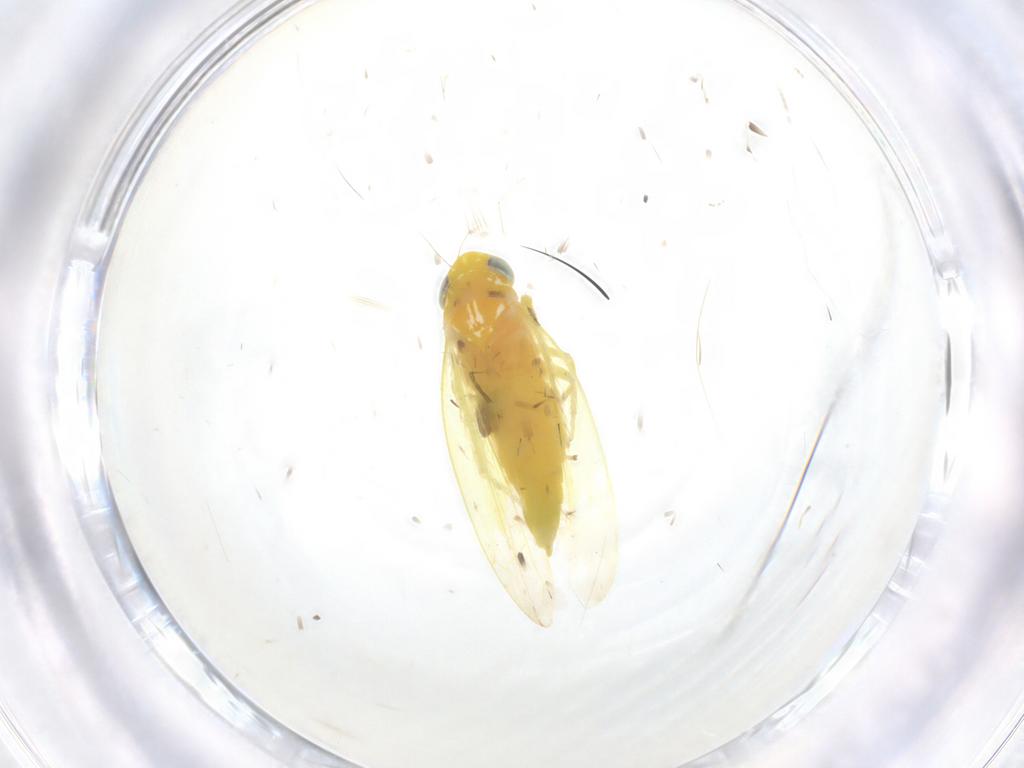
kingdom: Animalia
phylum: Arthropoda
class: Insecta
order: Hemiptera
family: Cicadellidae
